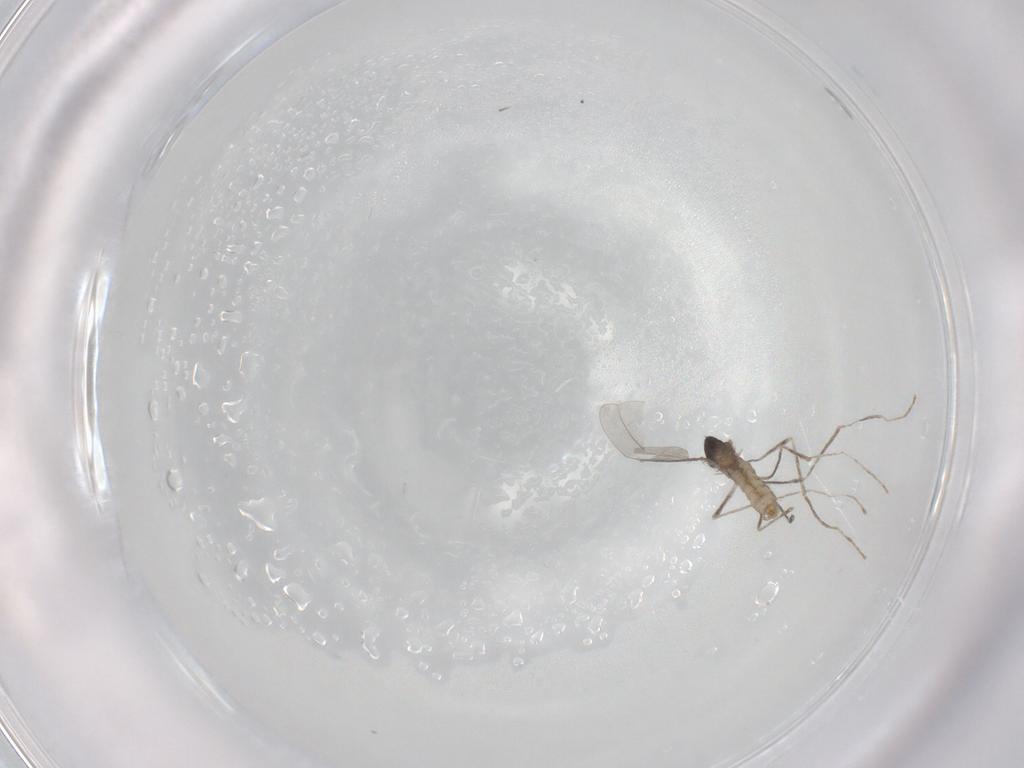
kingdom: Animalia
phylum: Arthropoda
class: Insecta
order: Diptera
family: Cecidomyiidae
